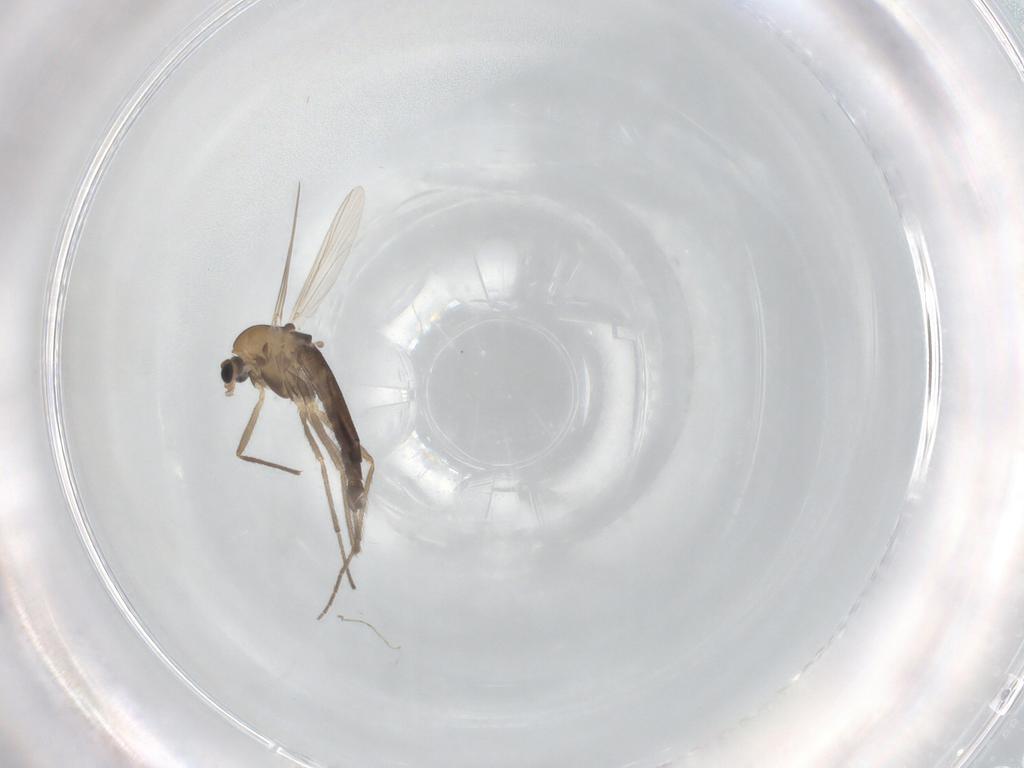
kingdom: Animalia
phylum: Arthropoda
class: Insecta
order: Diptera
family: Chironomidae
